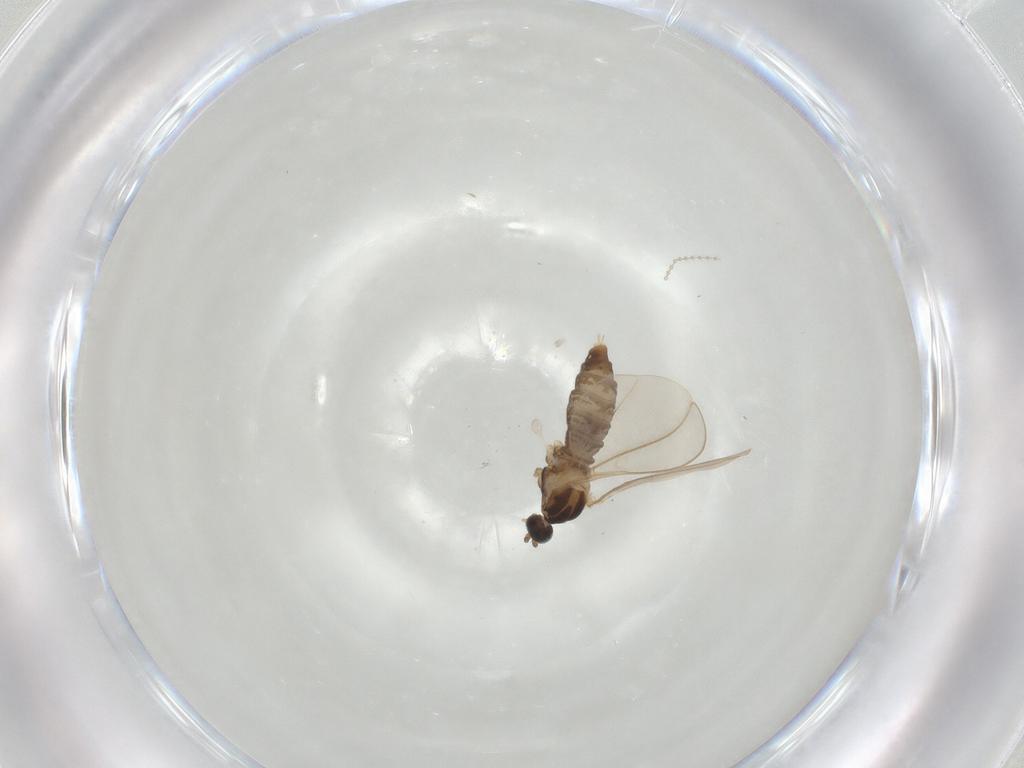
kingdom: Animalia
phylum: Arthropoda
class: Insecta
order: Diptera
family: Cecidomyiidae
